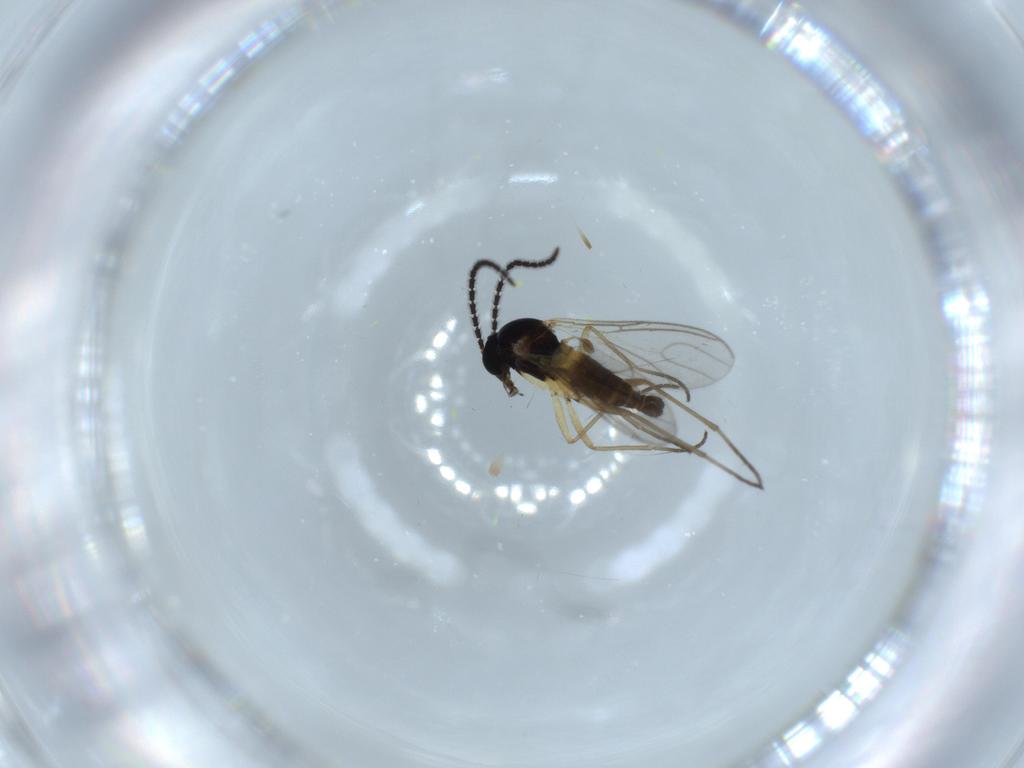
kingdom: Animalia
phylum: Arthropoda
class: Insecta
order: Diptera
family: Sciaridae
